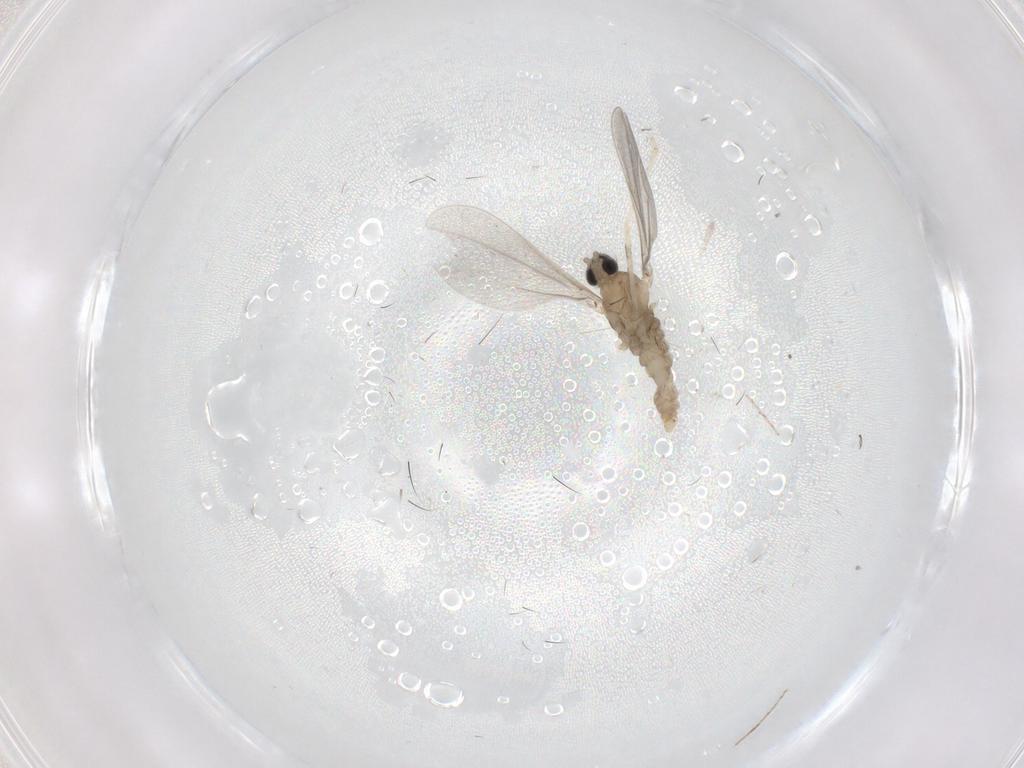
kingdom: Animalia
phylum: Arthropoda
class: Insecta
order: Diptera
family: Cecidomyiidae
